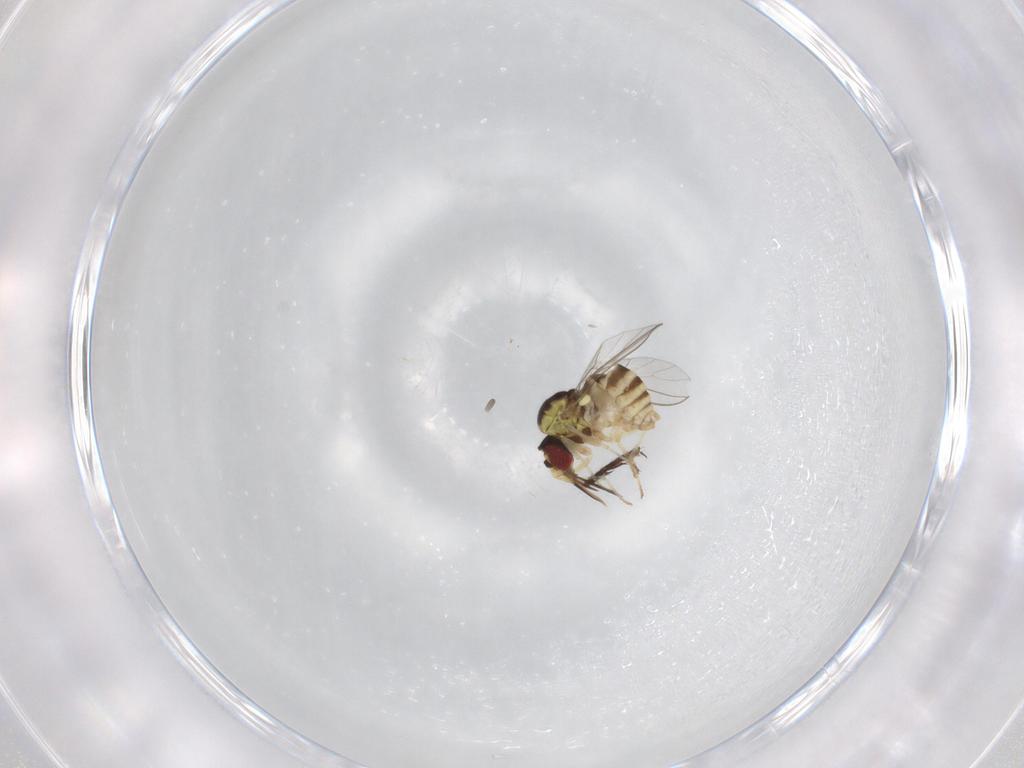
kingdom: Animalia
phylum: Arthropoda
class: Insecta
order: Diptera
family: Sarcophagidae
